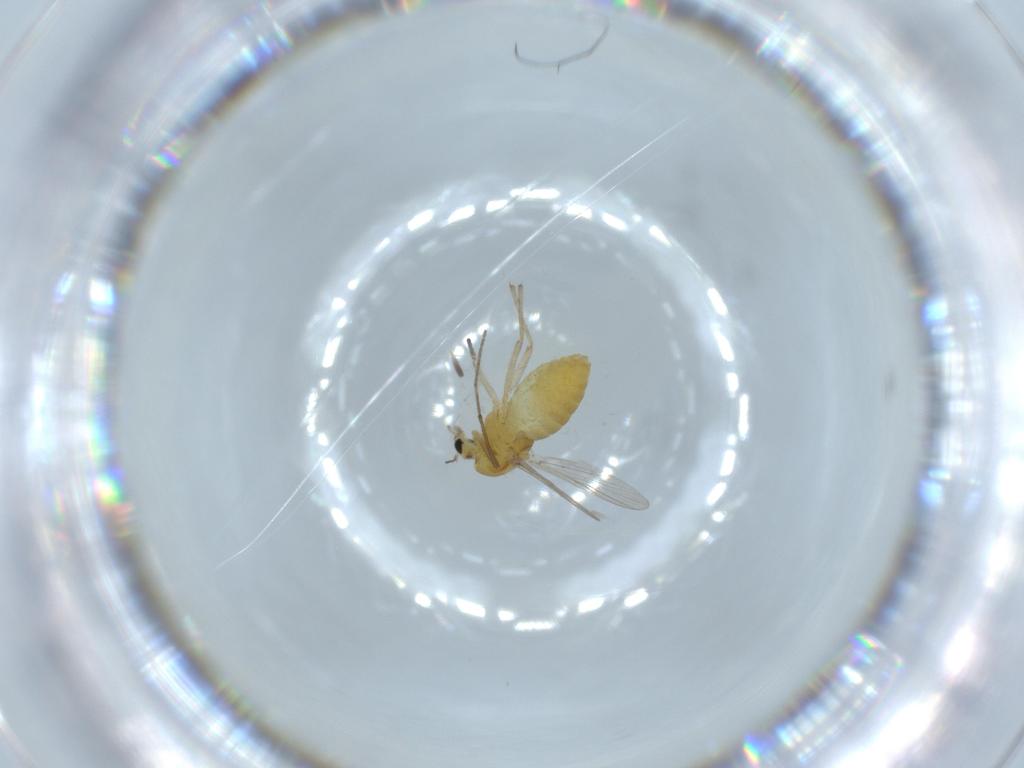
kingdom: Animalia
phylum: Arthropoda
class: Insecta
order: Diptera
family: Chironomidae
